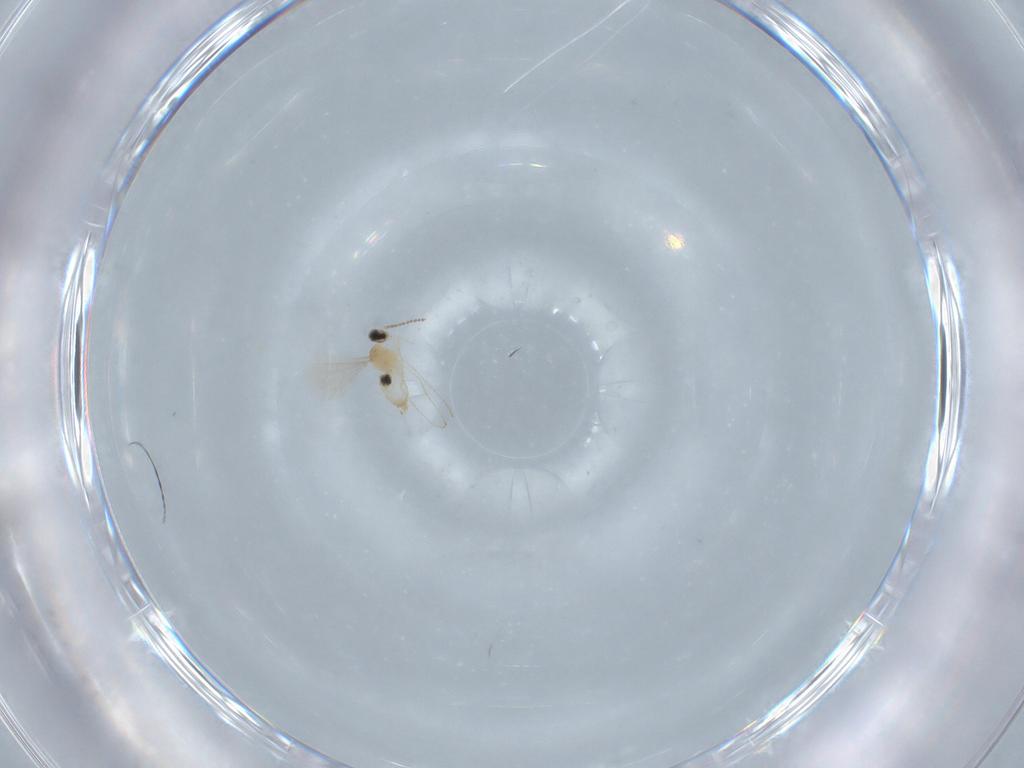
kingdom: Animalia
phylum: Arthropoda
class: Insecta
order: Diptera
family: Cecidomyiidae
